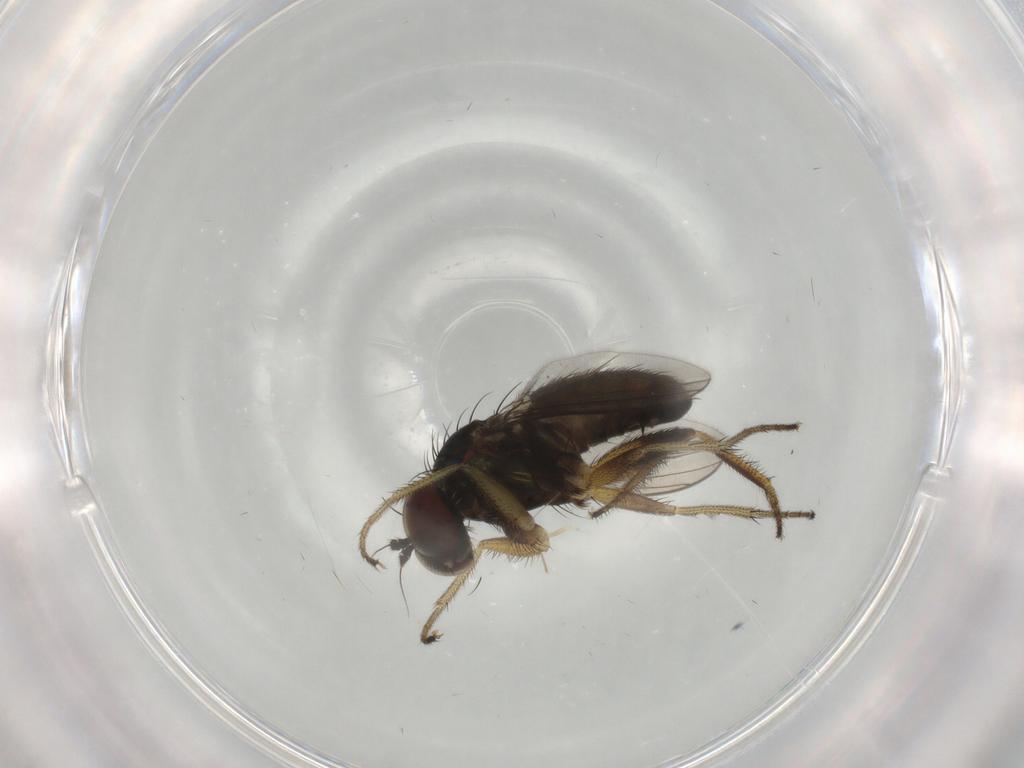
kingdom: Animalia
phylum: Arthropoda
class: Insecta
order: Diptera
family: Dolichopodidae
